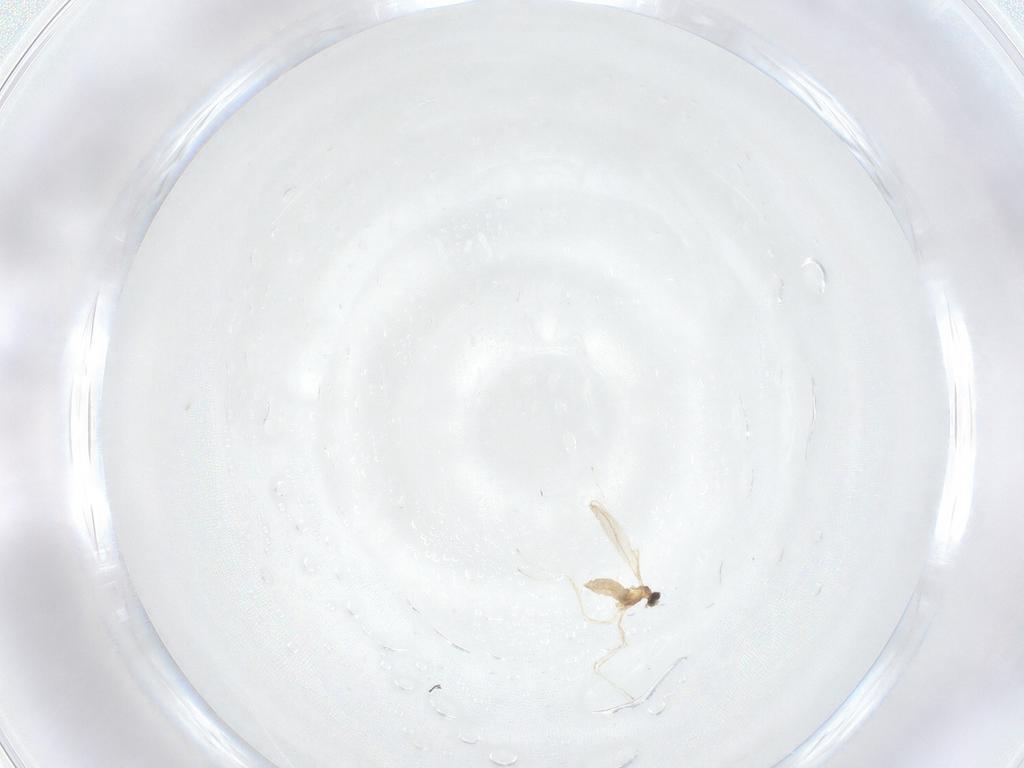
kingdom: Animalia
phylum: Arthropoda
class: Insecta
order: Diptera
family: Cecidomyiidae
